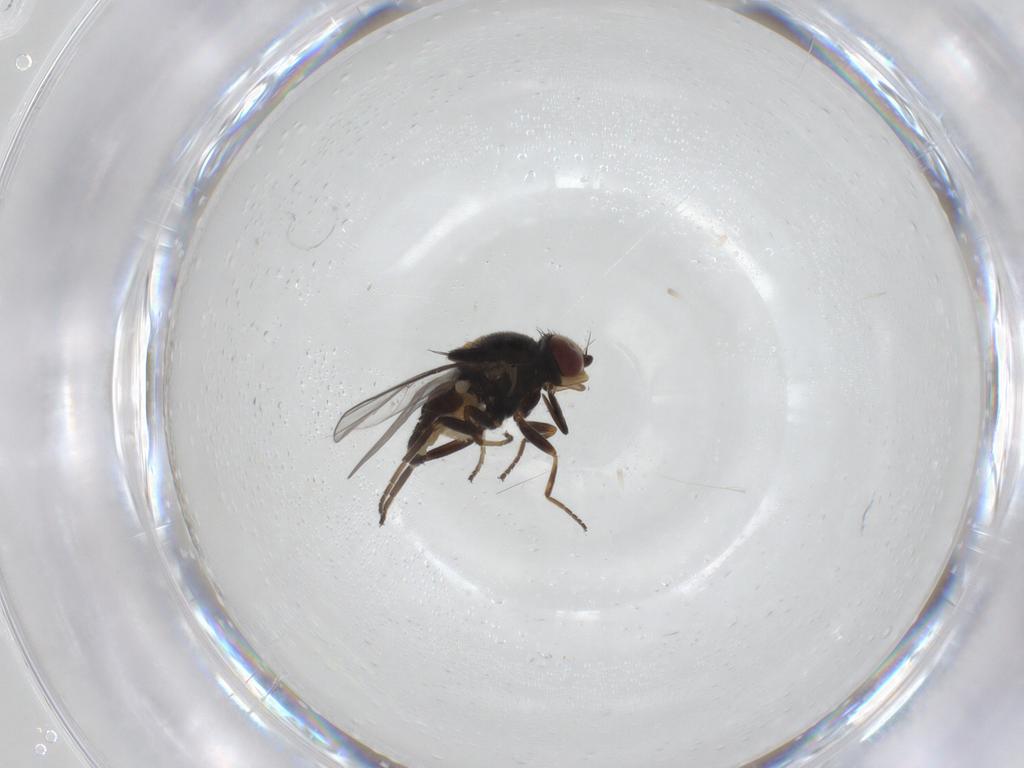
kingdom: Animalia
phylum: Arthropoda
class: Insecta
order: Diptera
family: Chloropidae
